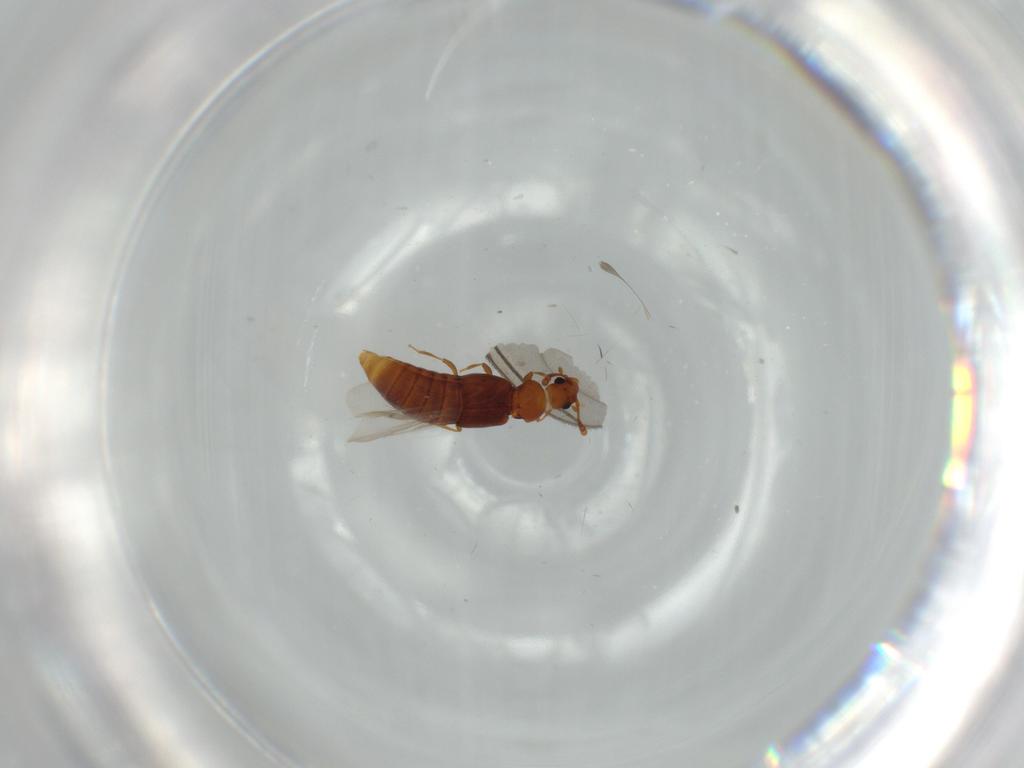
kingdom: Animalia
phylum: Arthropoda
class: Insecta
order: Coleoptera
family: Staphylinidae
